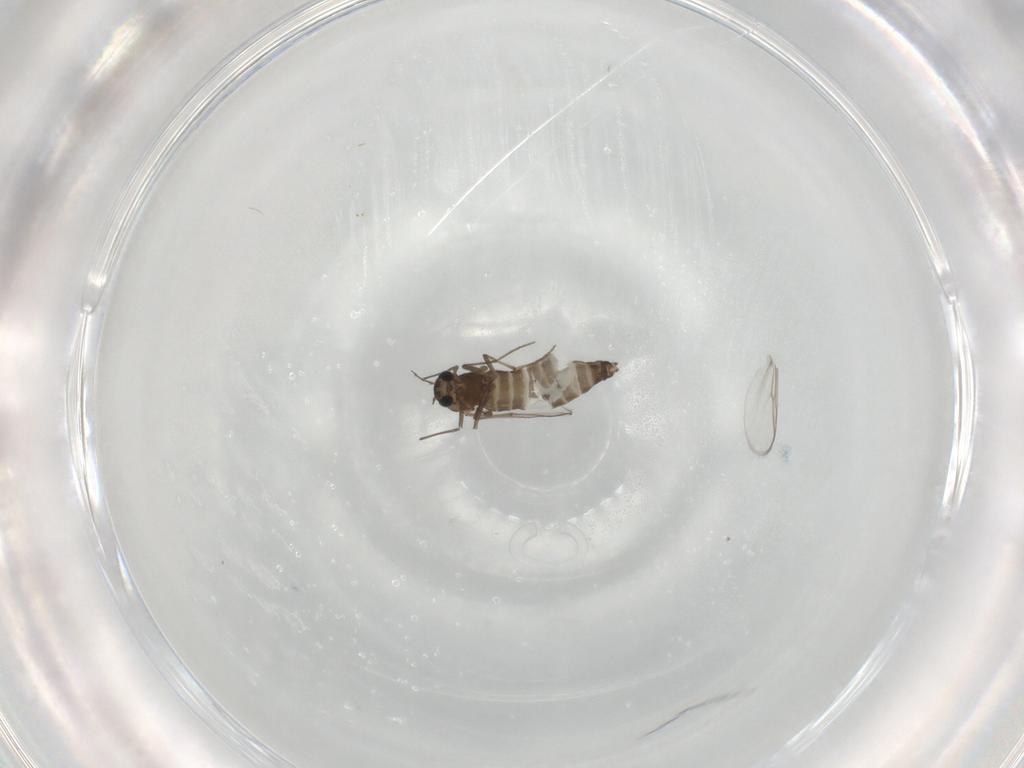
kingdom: Animalia
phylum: Arthropoda
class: Insecta
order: Diptera
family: Chironomidae
